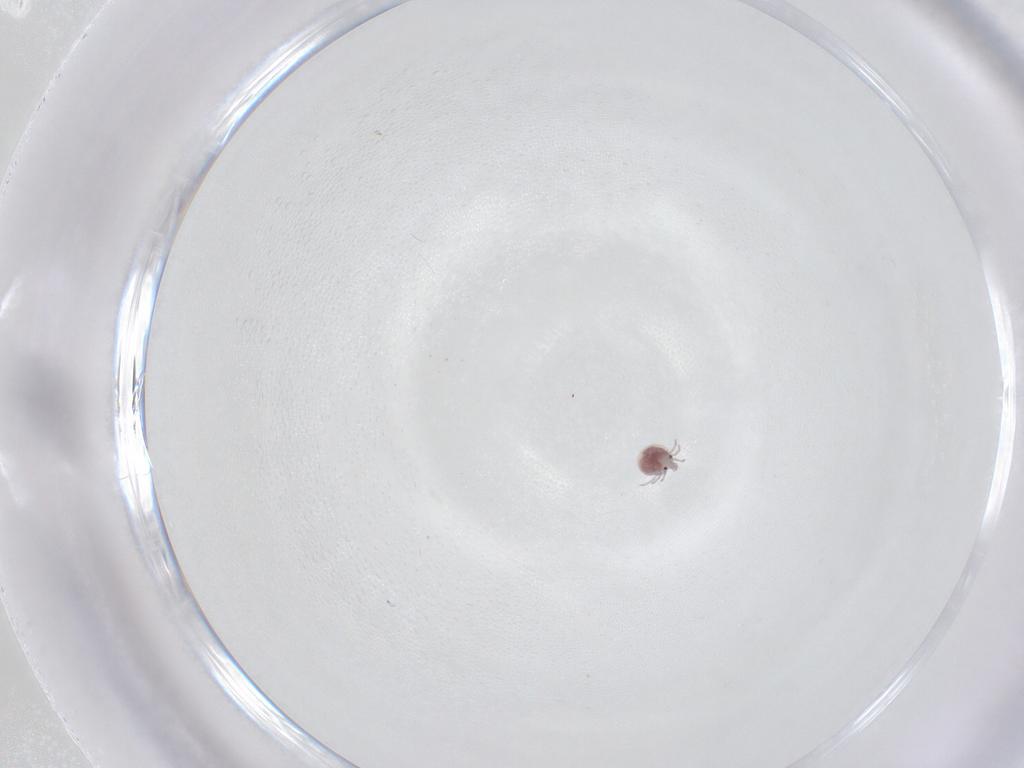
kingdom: Animalia
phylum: Arthropoda
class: Arachnida
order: Trombidiformes
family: Pionidae
